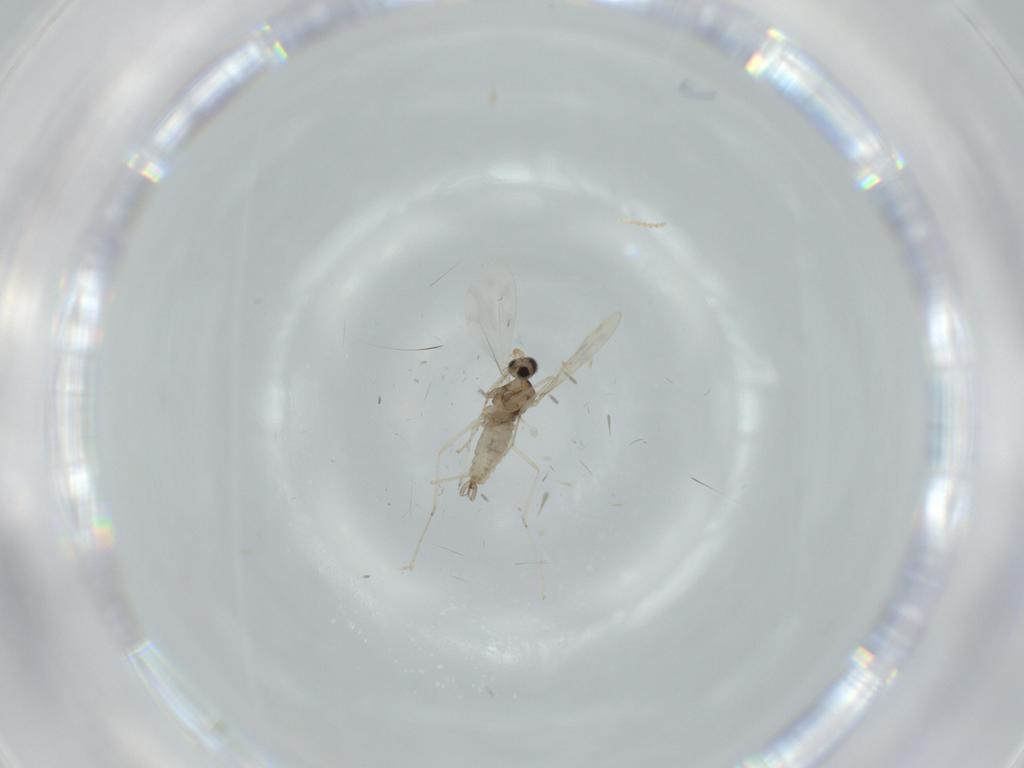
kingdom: Animalia
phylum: Arthropoda
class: Insecta
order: Diptera
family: Cecidomyiidae
